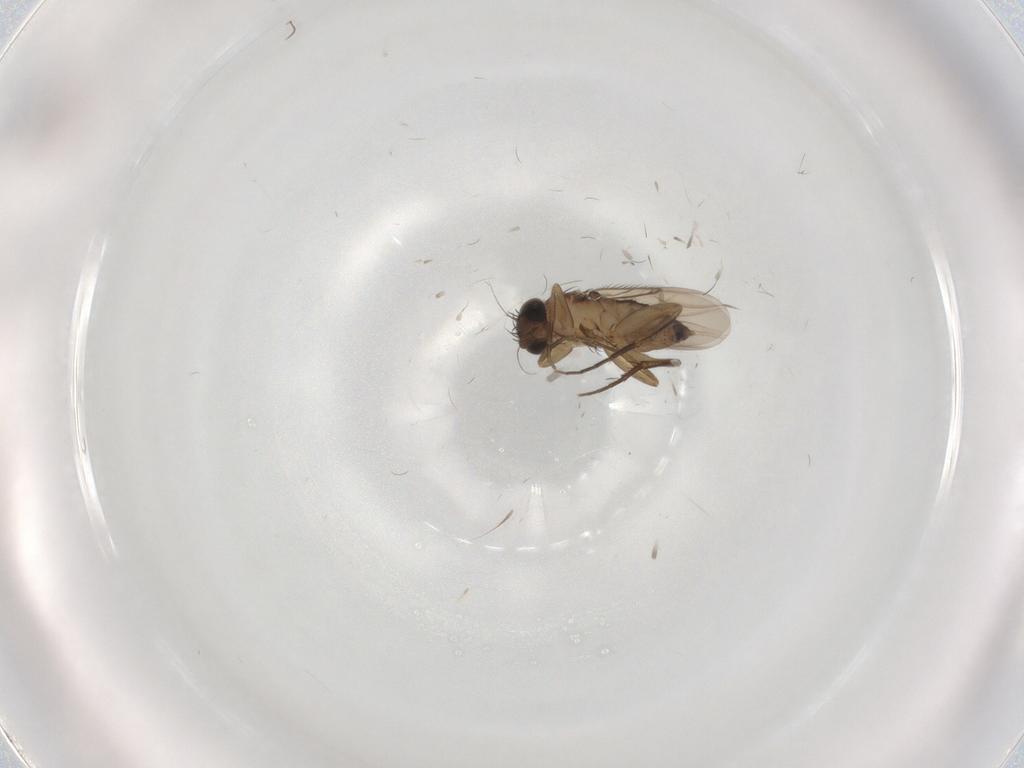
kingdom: Animalia
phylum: Arthropoda
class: Insecta
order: Diptera
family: Phoridae
